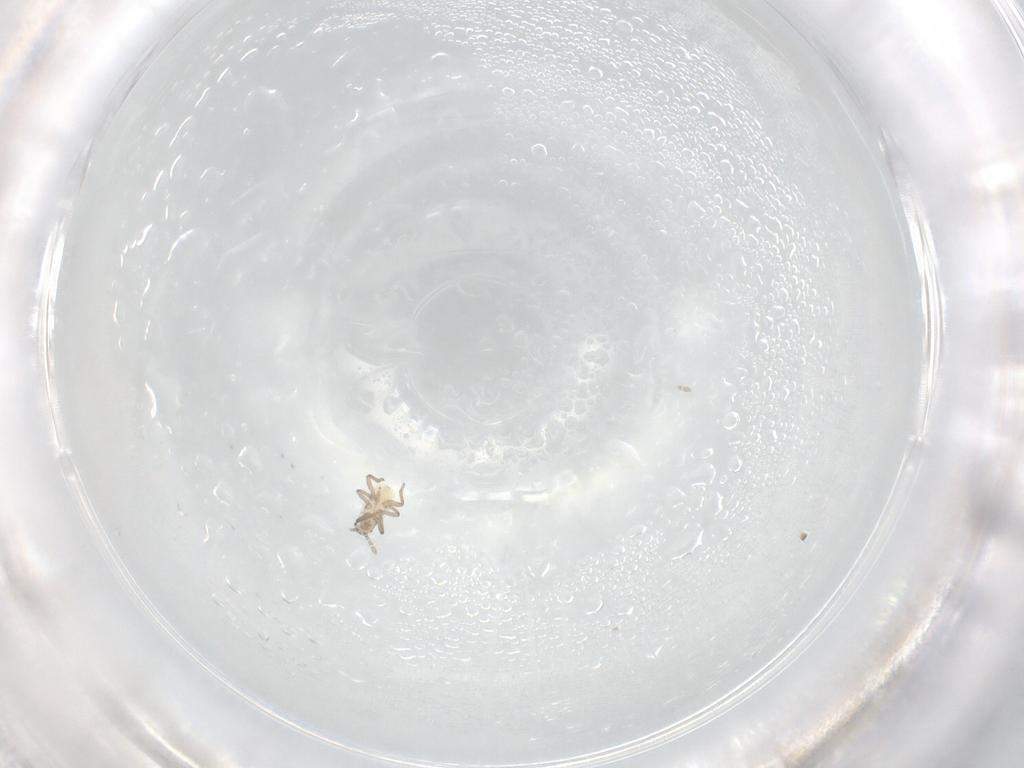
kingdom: Animalia
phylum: Arthropoda
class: Insecta
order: Hemiptera
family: Aphididae
